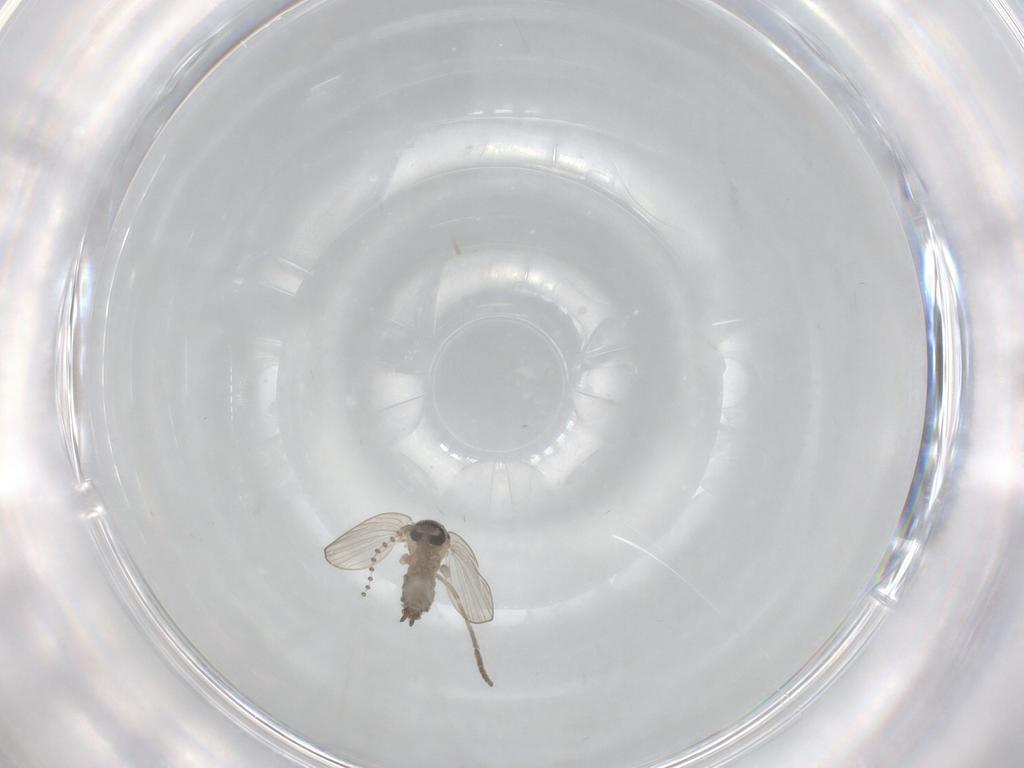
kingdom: Animalia
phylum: Arthropoda
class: Insecta
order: Diptera
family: Psychodidae
